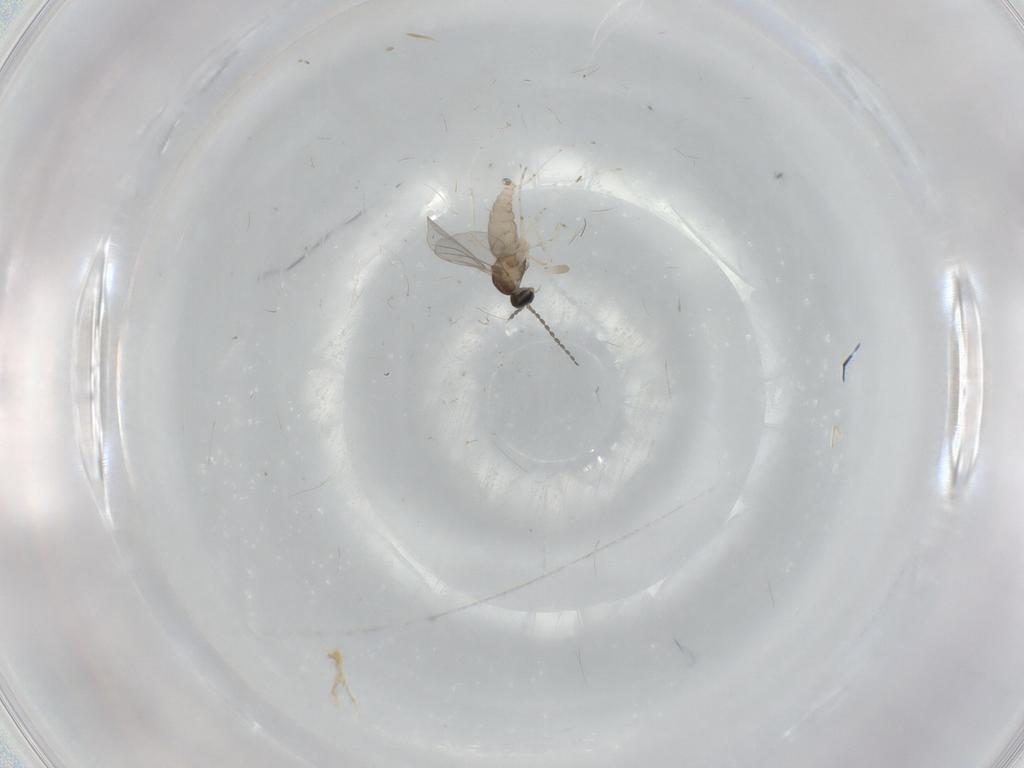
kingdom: Animalia
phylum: Arthropoda
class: Insecta
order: Diptera
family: Cecidomyiidae
